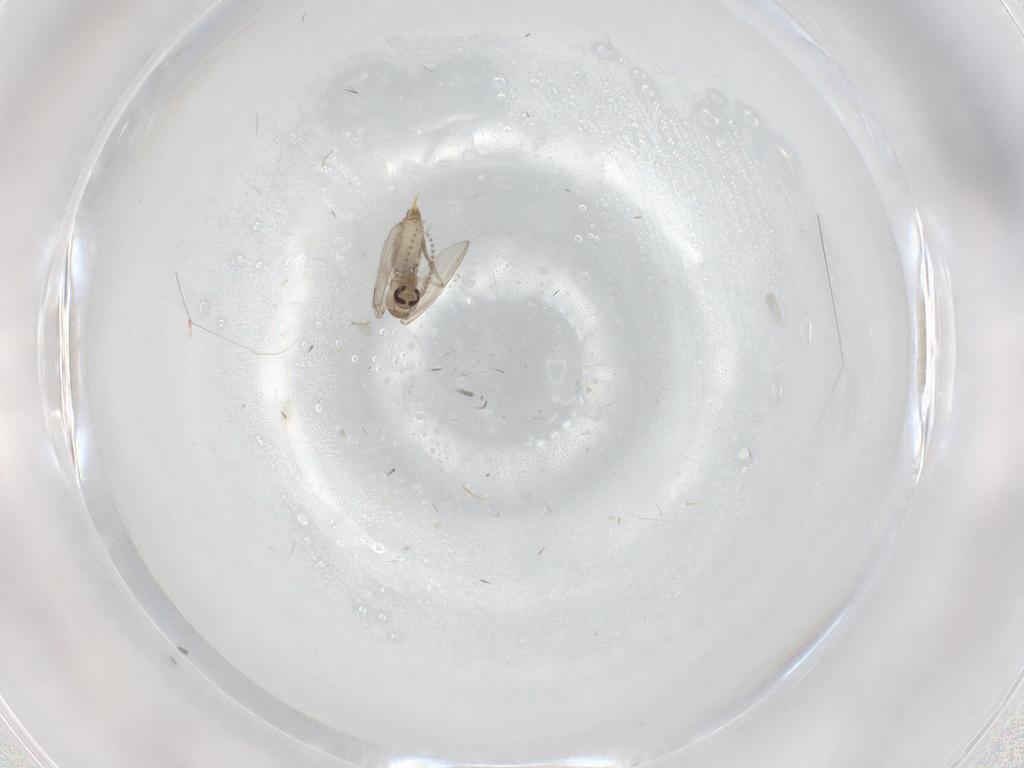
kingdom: Animalia
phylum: Arthropoda
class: Insecta
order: Diptera
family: Psychodidae
